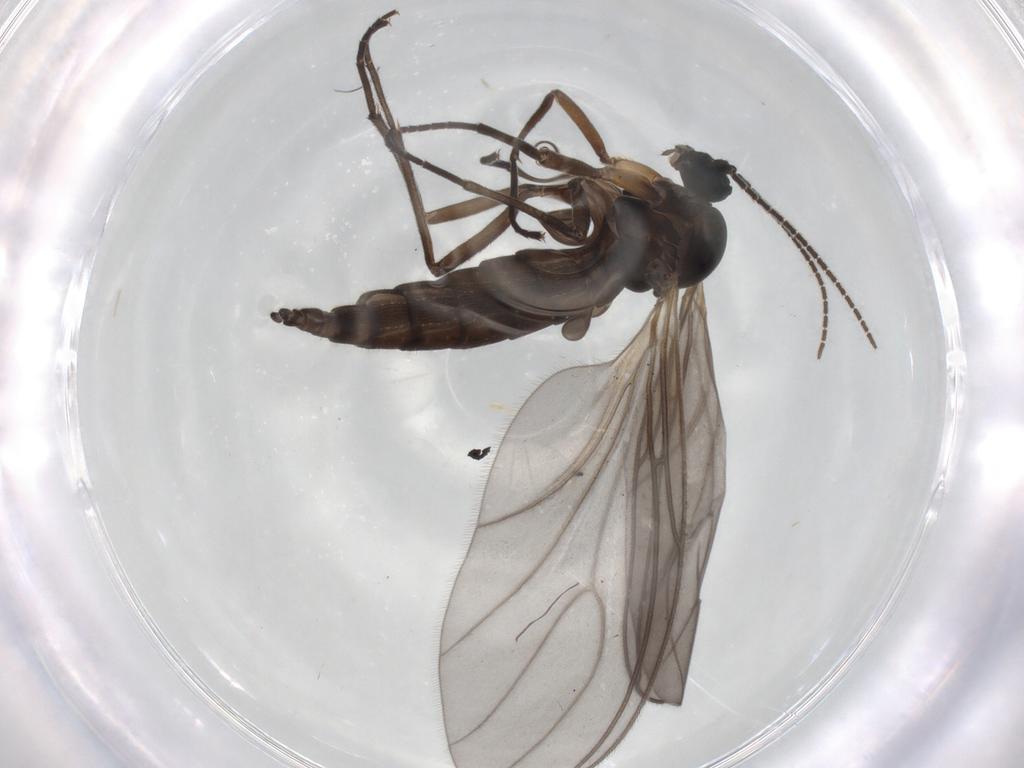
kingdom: Animalia
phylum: Arthropoda
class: Insecta
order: Diptera
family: Sciaridae
